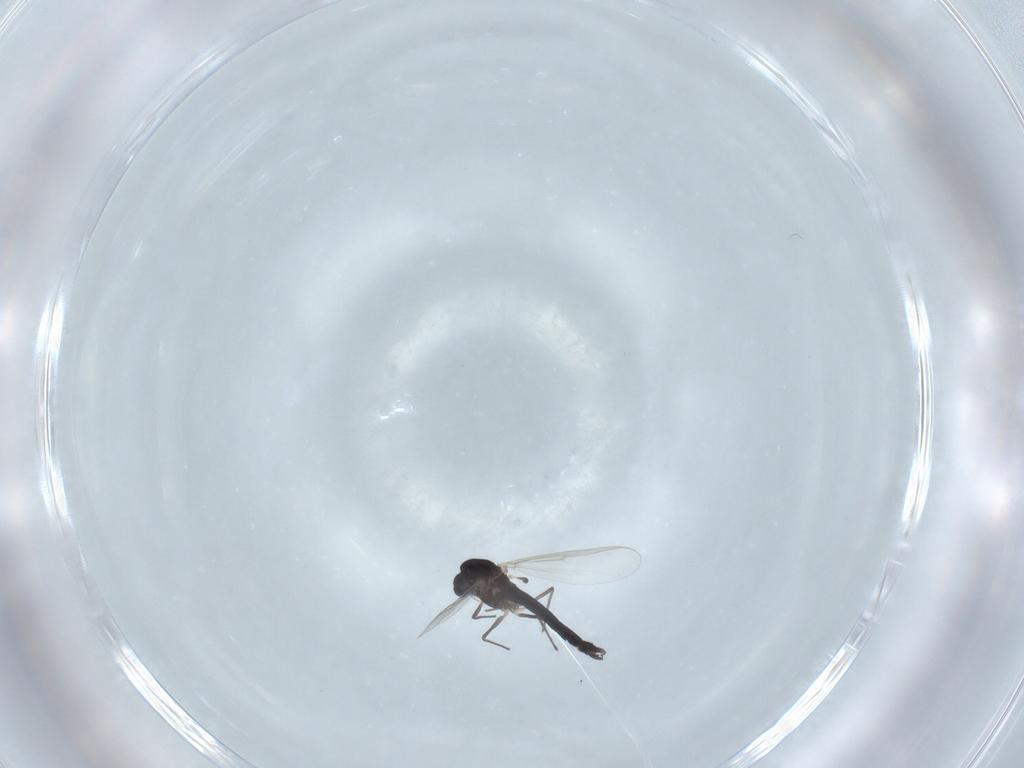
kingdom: Animalia
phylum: Arthropoda
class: Insecta
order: Diptera
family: Chironomidae
